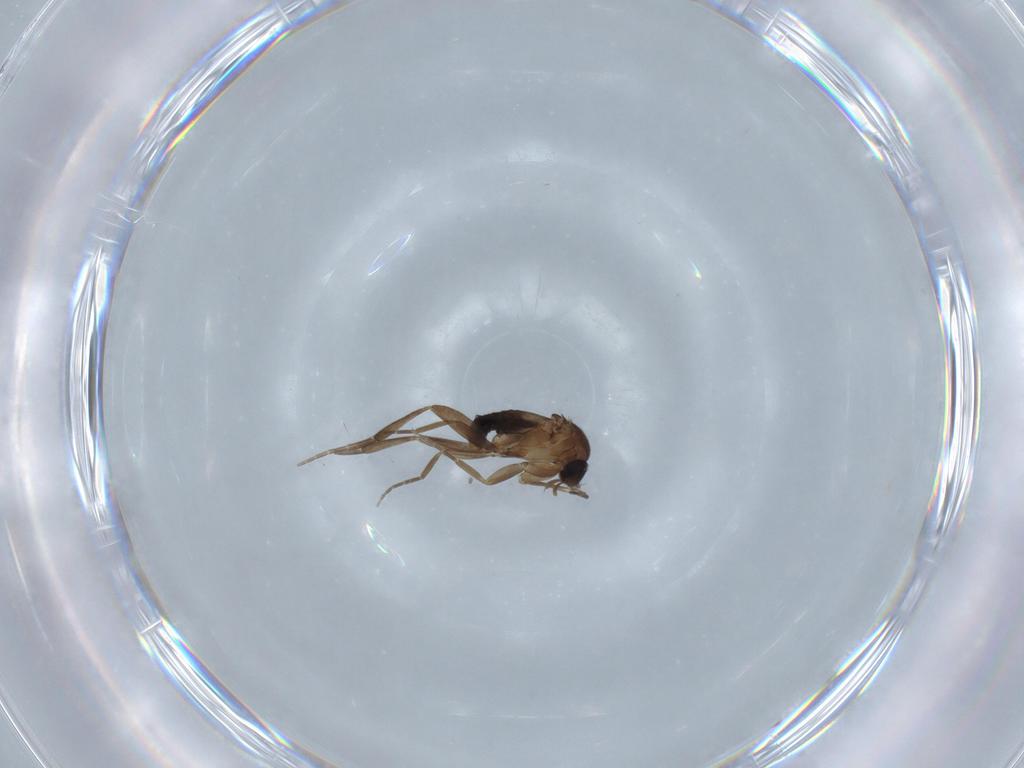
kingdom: Animalia
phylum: Arthropoda
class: Insecta
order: Diptera
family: Phoridae
